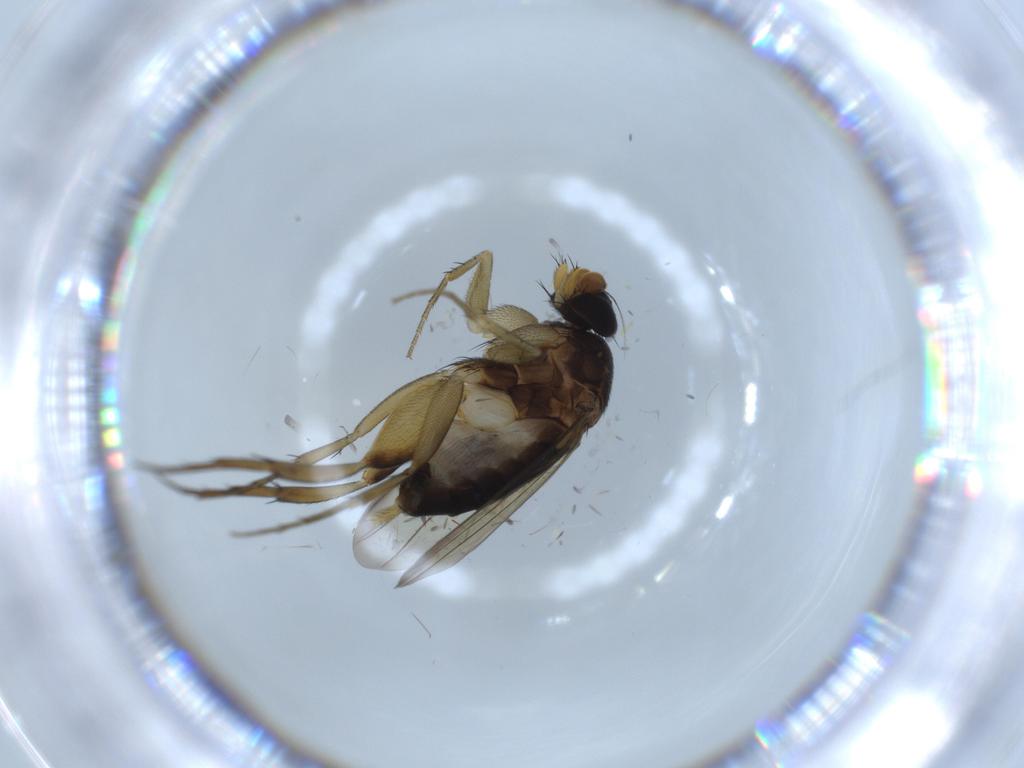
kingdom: Animalia
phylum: Arthropoda
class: Insecta
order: Diptera
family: Phoridae
